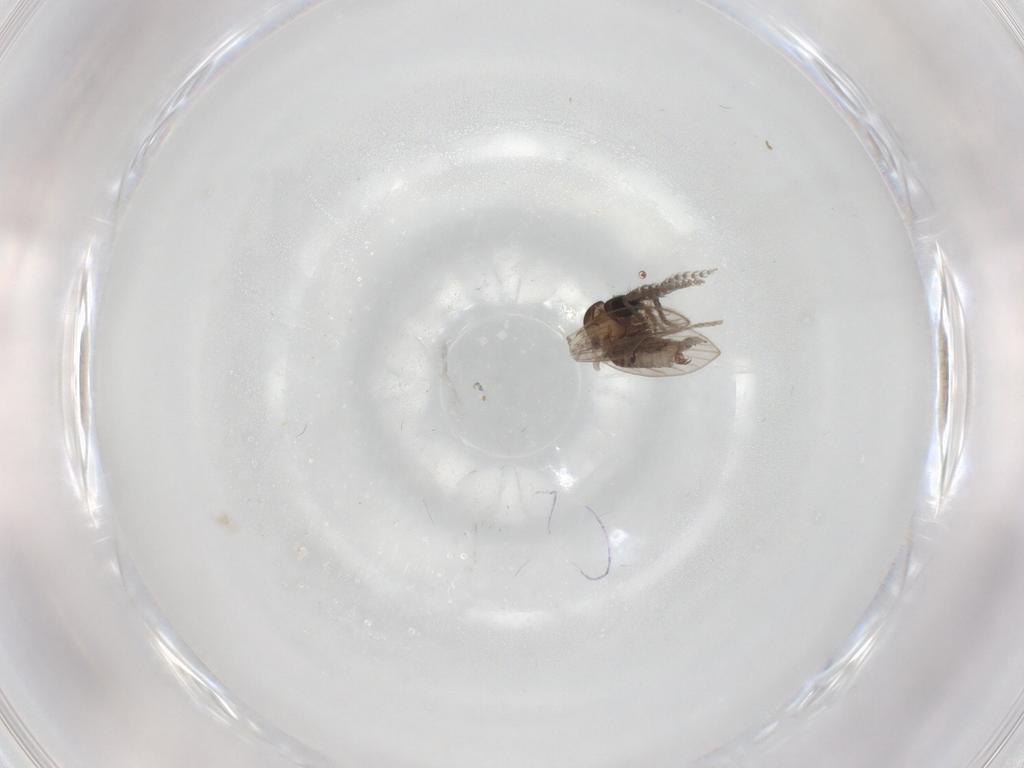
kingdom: Animalia
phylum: Arthropoda
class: Insecta
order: Diptera
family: Psychodidae
